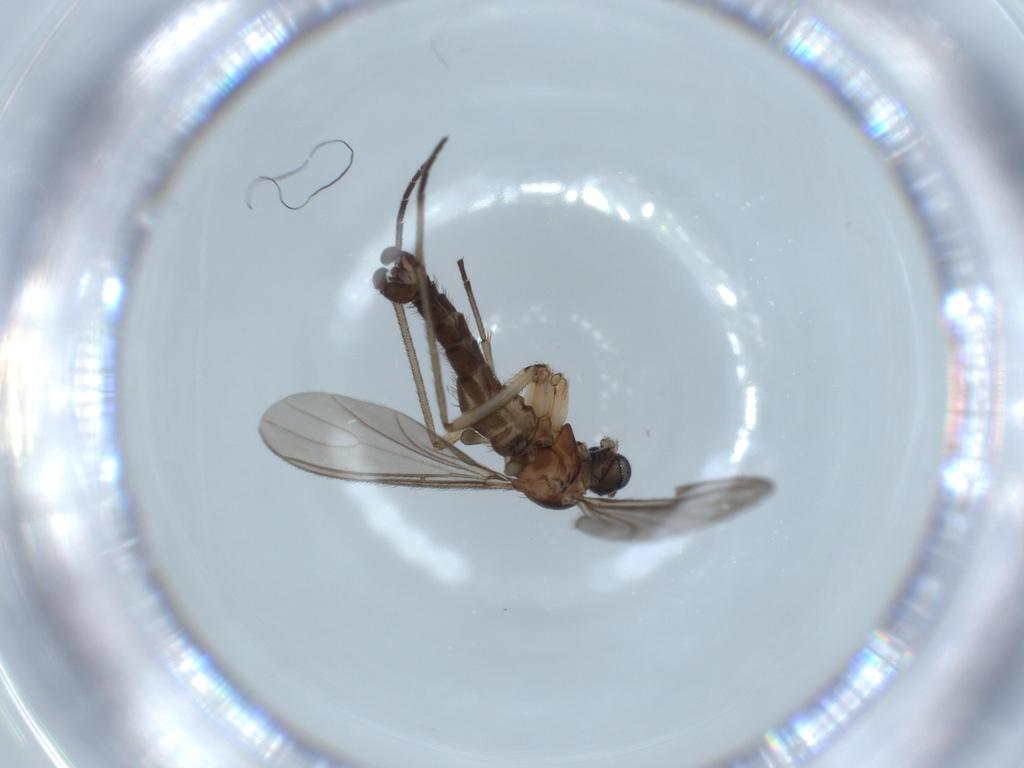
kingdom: Animalia
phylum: Arthropoda
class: Insecta
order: Diptera
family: Sciaridae
